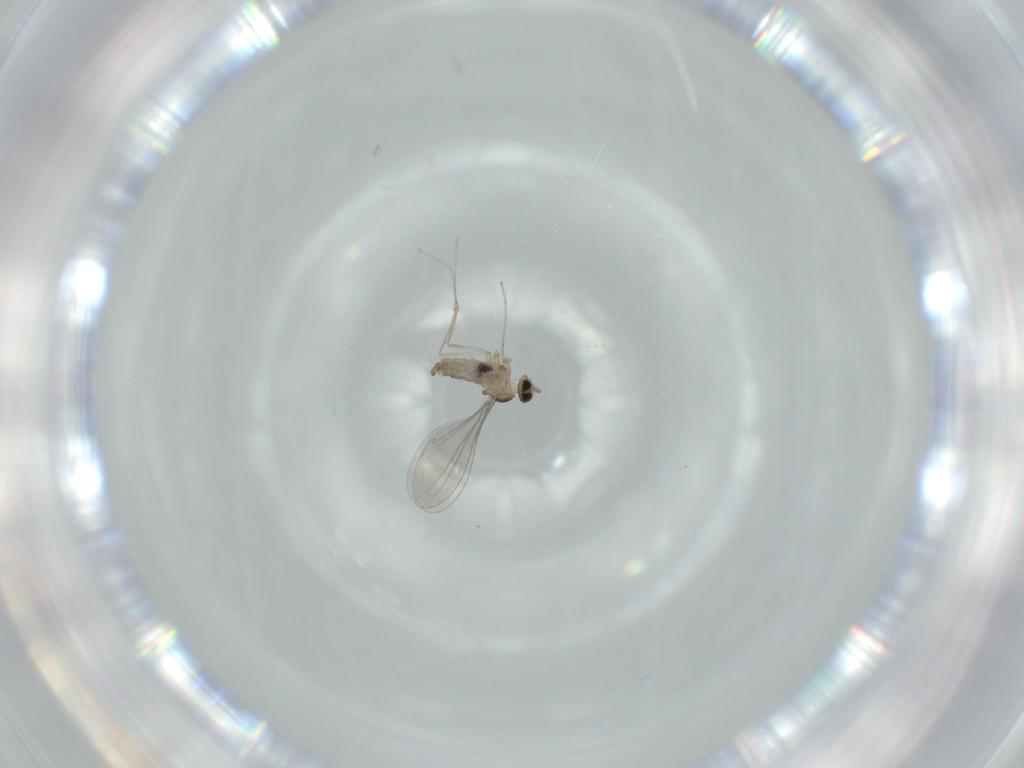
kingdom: Animalia
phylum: Arthropoda
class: Insecta
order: Diptera
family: Cecidomyiidae
